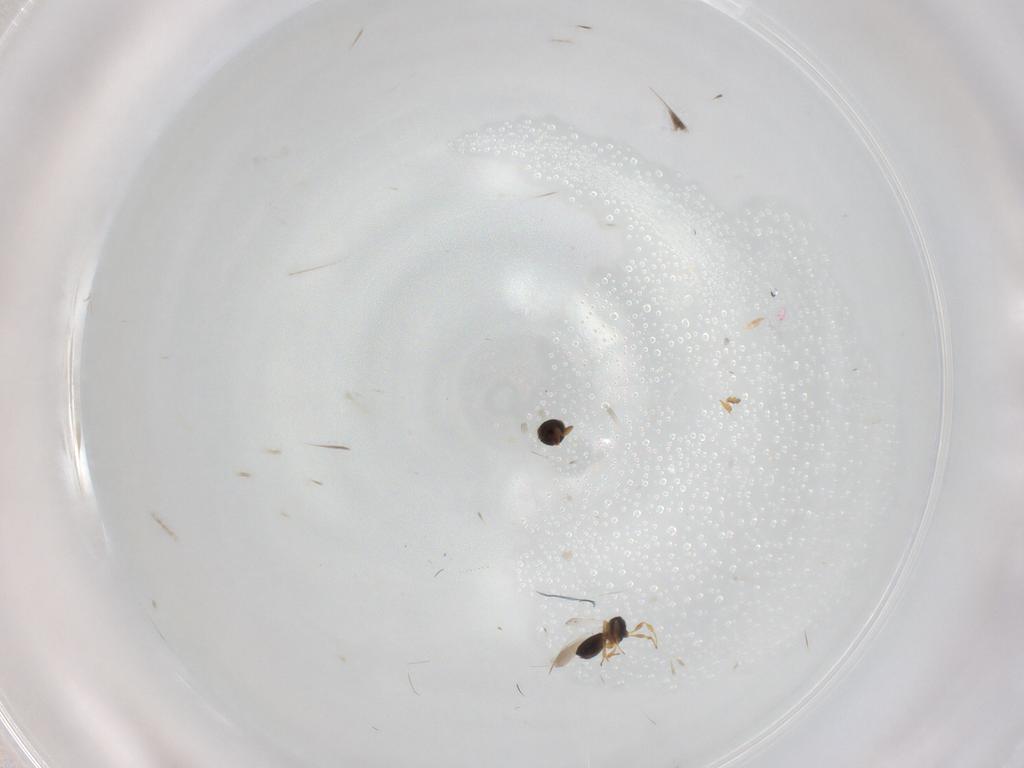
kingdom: Animalia
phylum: Arthropoda
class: Insecta
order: Hymenoptera
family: Platygastridae
